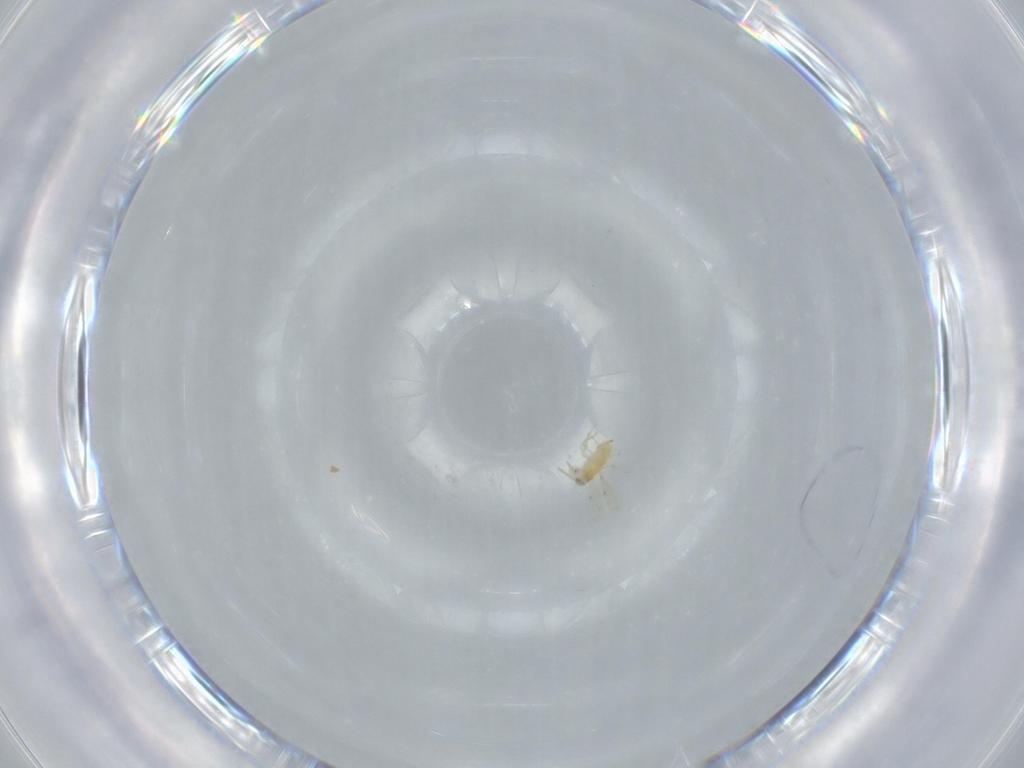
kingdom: Animalia
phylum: Arthropoda
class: Insecta
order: Hymenoptera
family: Aphelinidae
